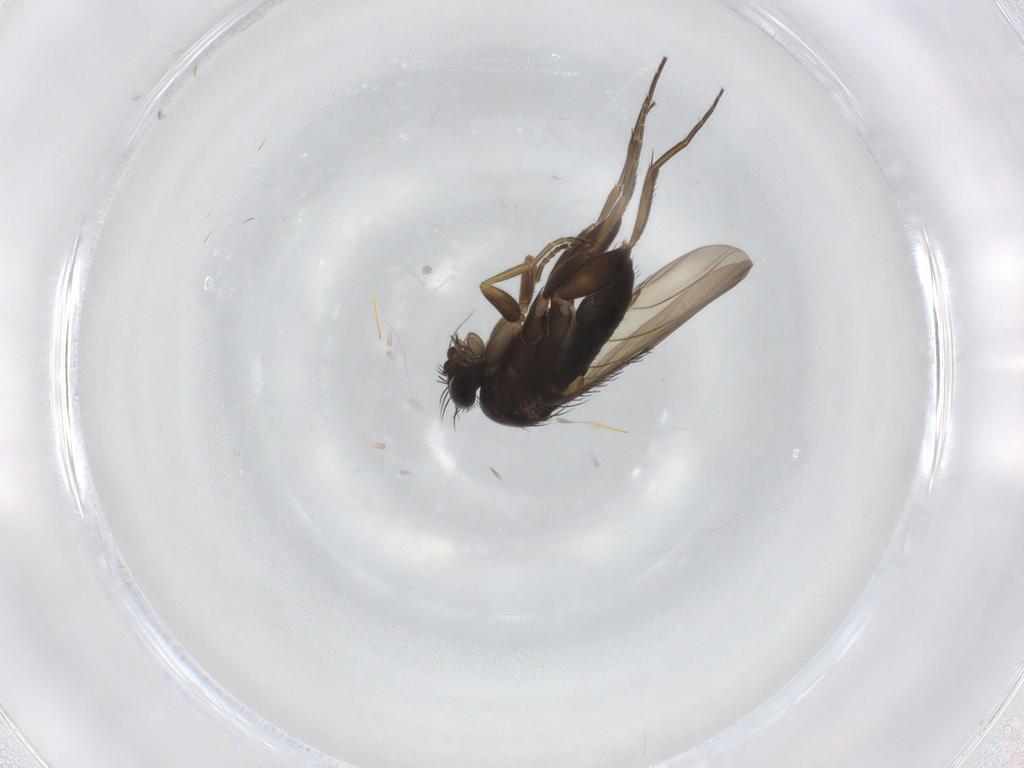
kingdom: Animalia
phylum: Arthropoda
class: Insecta
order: Diptera
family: Phoridae
